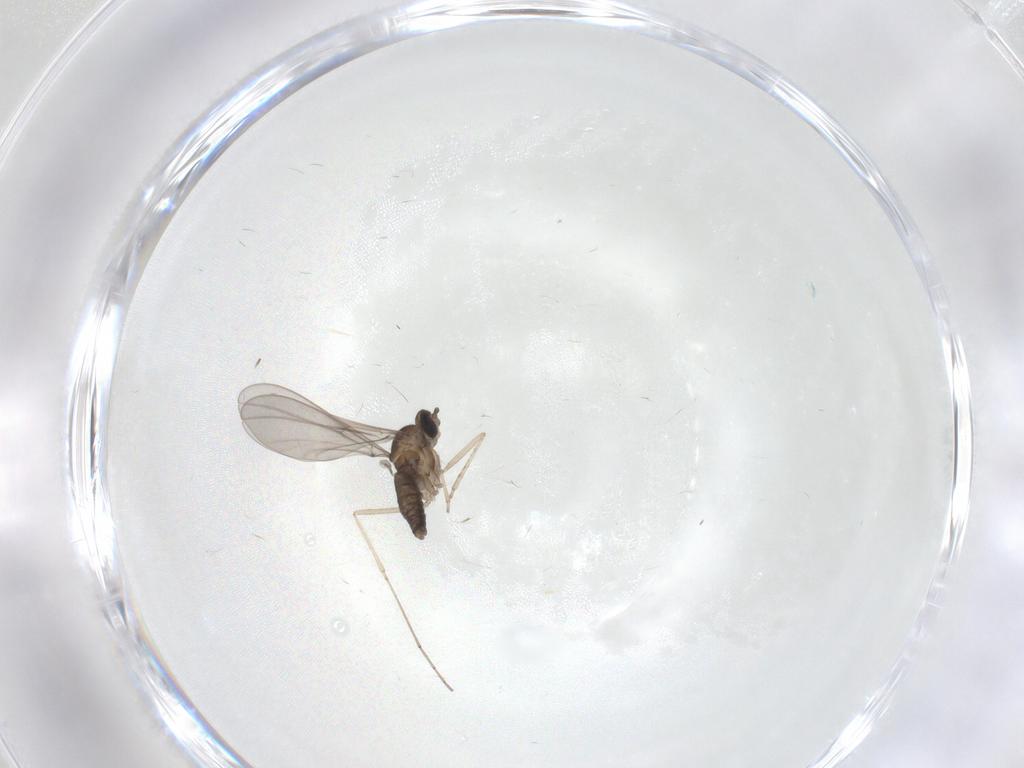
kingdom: Animalia
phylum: Arthropoda
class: Insecta
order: Diptera
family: Cecidomyiidae
